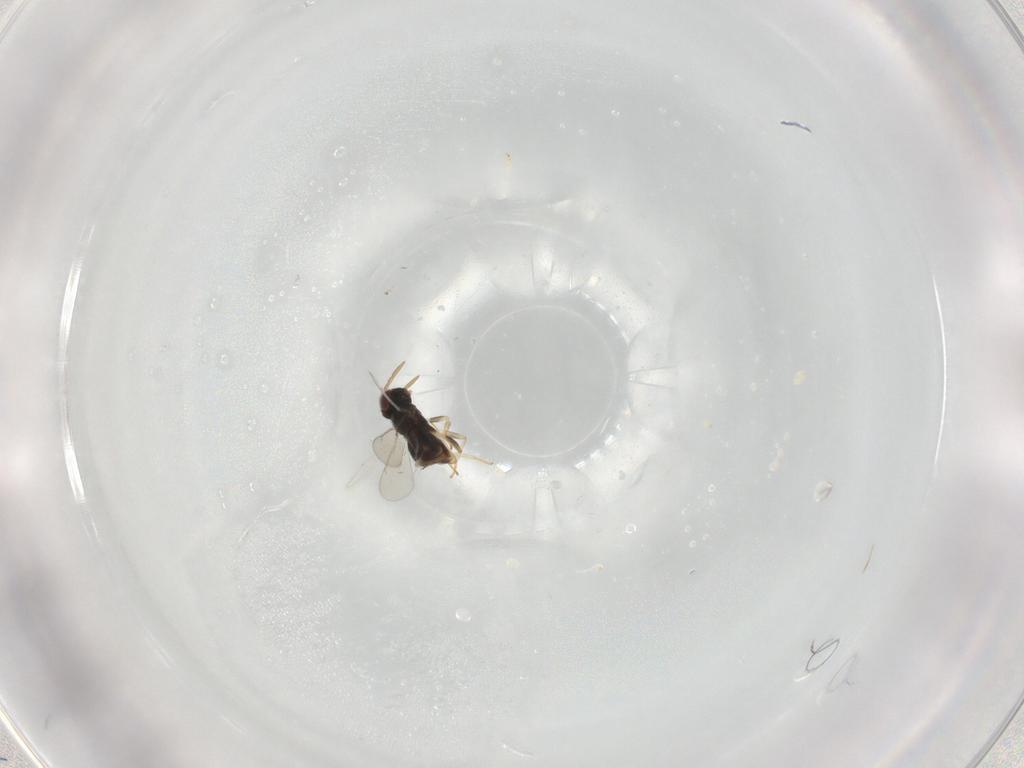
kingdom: Animalia
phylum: Arthropoda
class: Insecta
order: Hymenoptera
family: Aphelinidae
